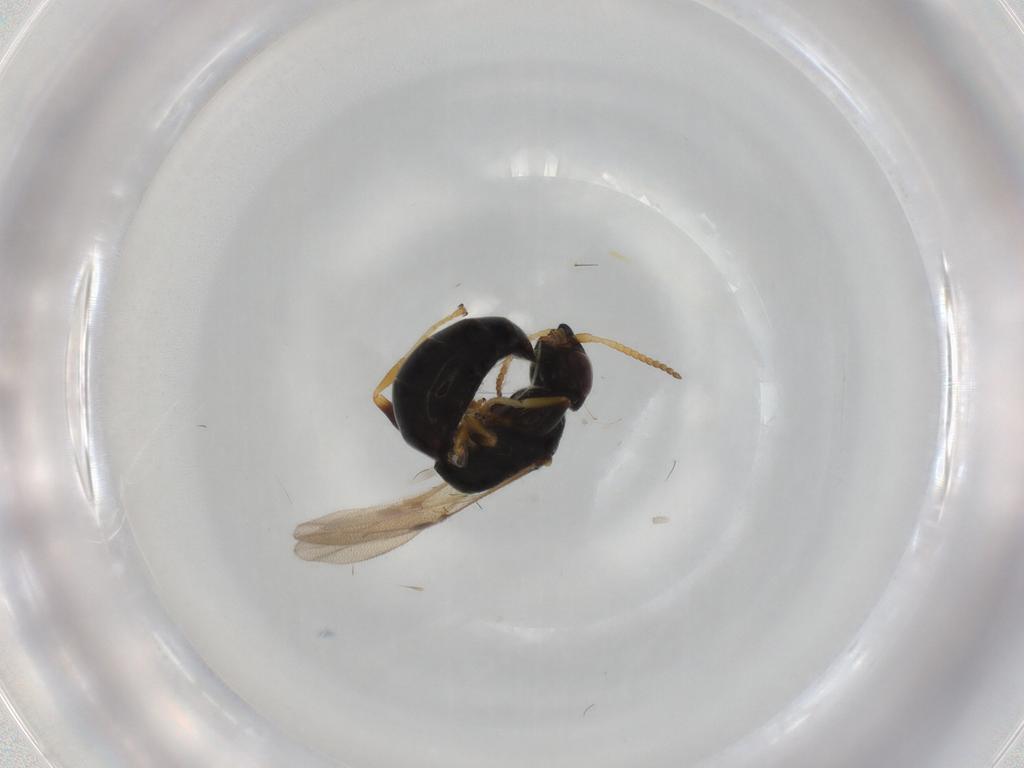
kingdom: Animalia
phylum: Arthropoda
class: Insecta
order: Hymenoptera
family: Bethylidae
